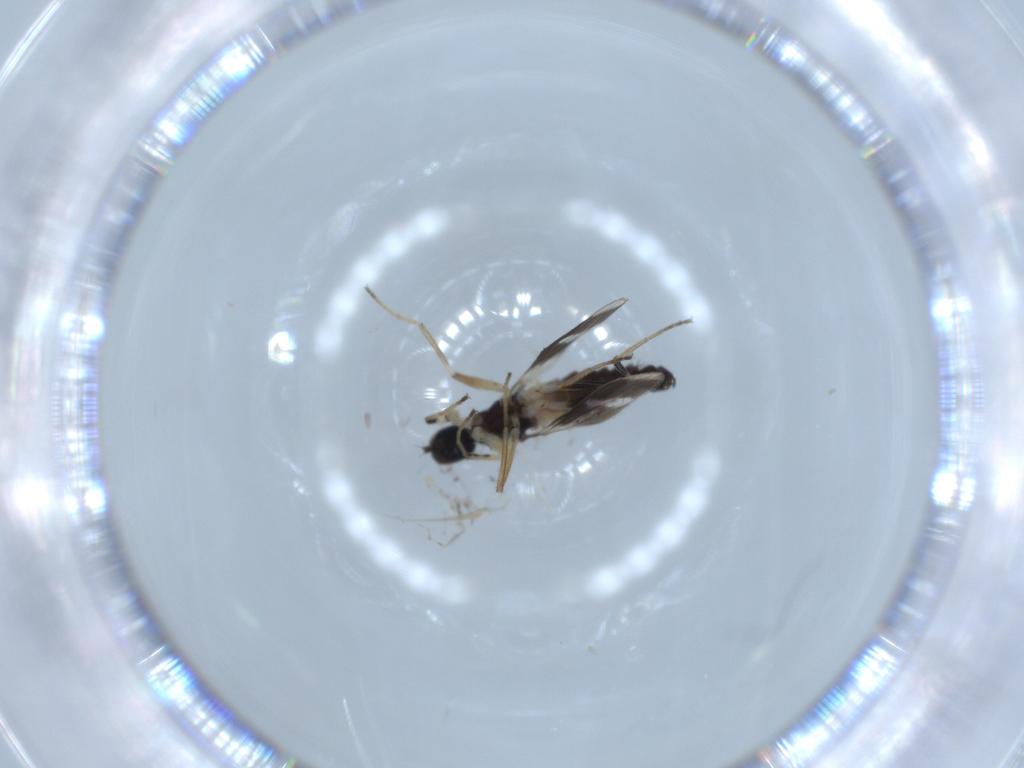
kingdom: Animalia
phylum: Arthropoda
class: Insecta
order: Diptera
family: Hybotidae
